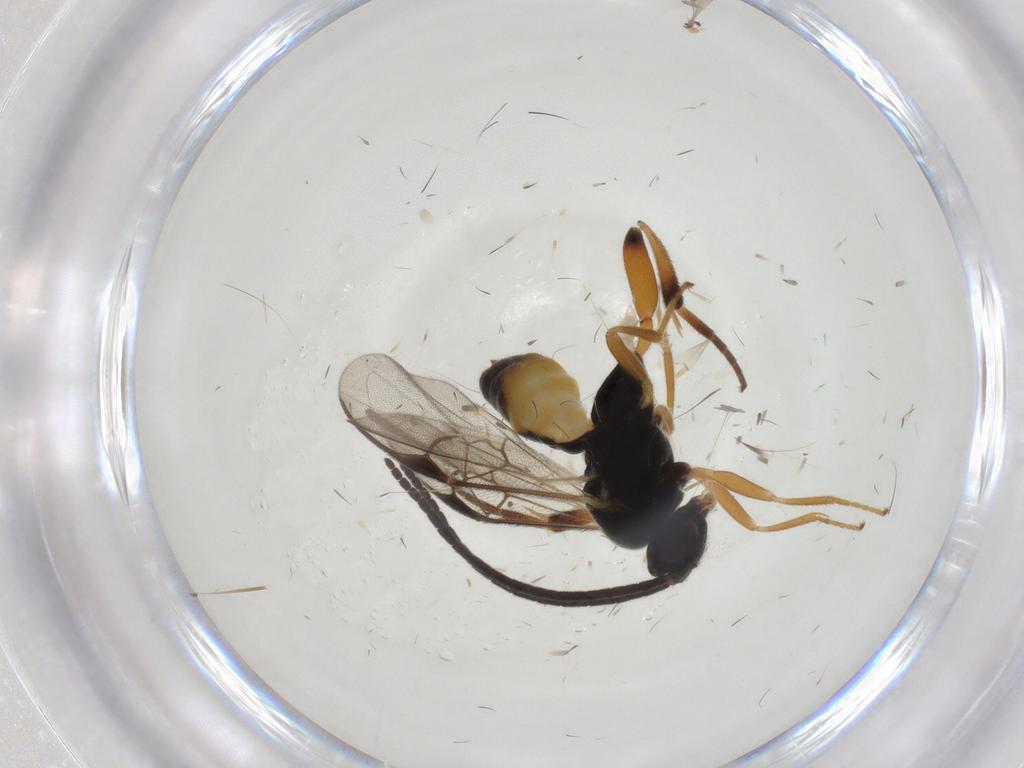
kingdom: Animalia
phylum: Arthropoda
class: Insecta
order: Hymenoptera
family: Braconidae
